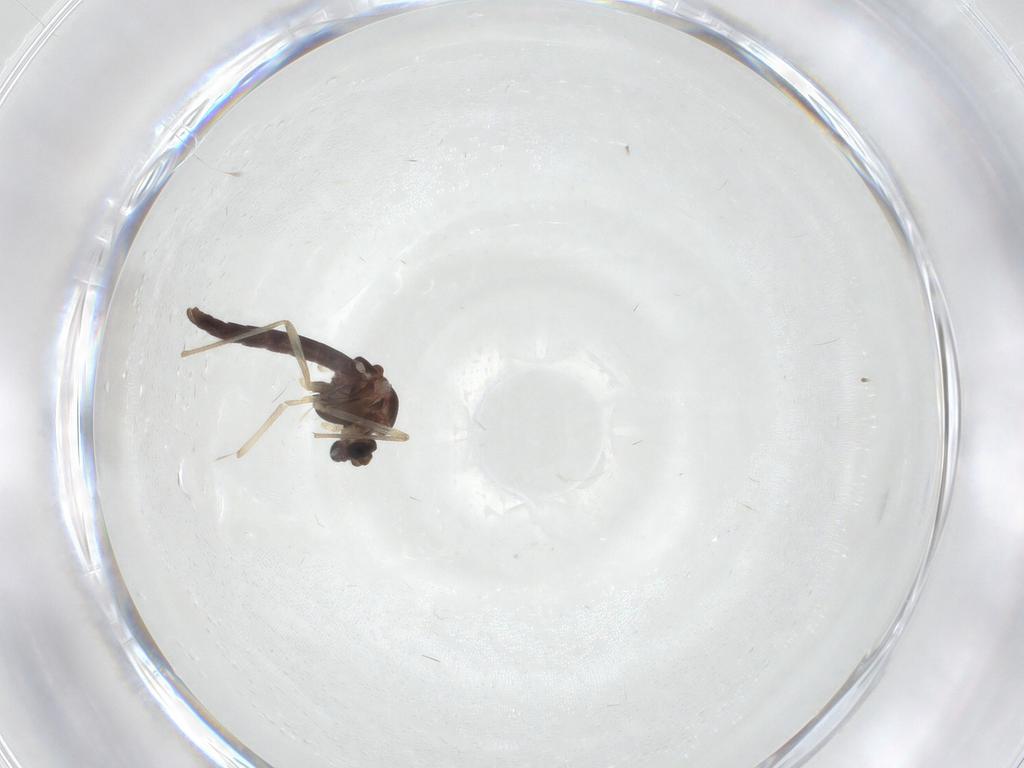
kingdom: Animalia
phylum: Arthropoda
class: Insecta
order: Diptera
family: Chironomidae
